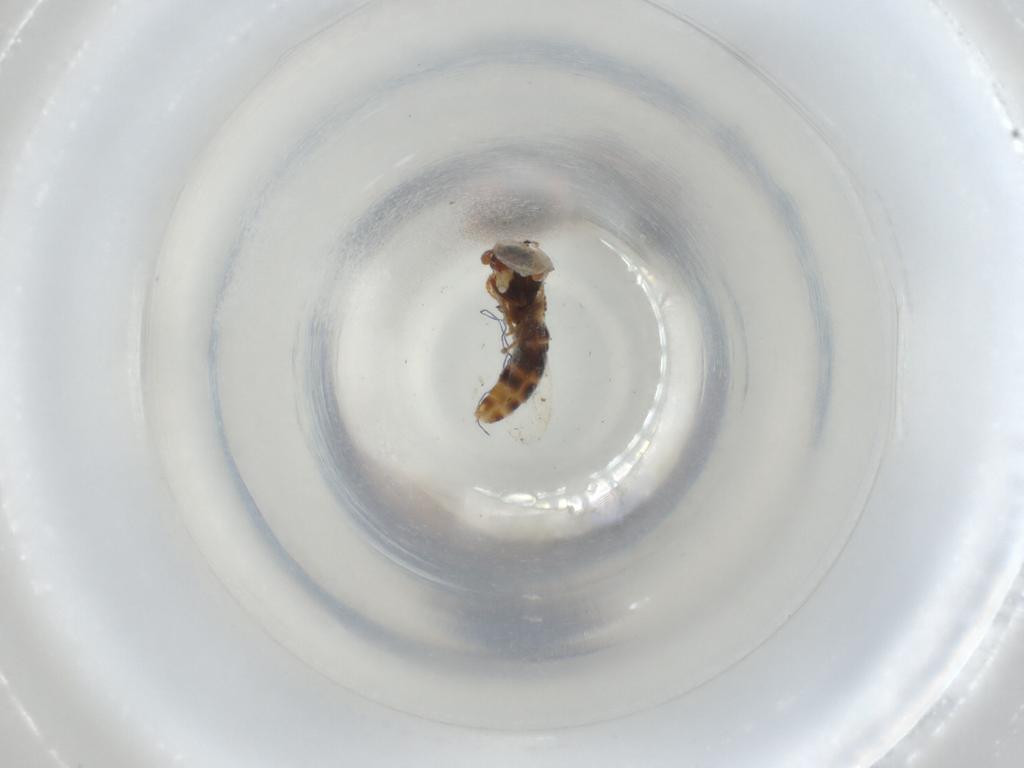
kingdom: Animalia
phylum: Arthropoda
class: Insecta
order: Hymenoptera
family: Formicidae
